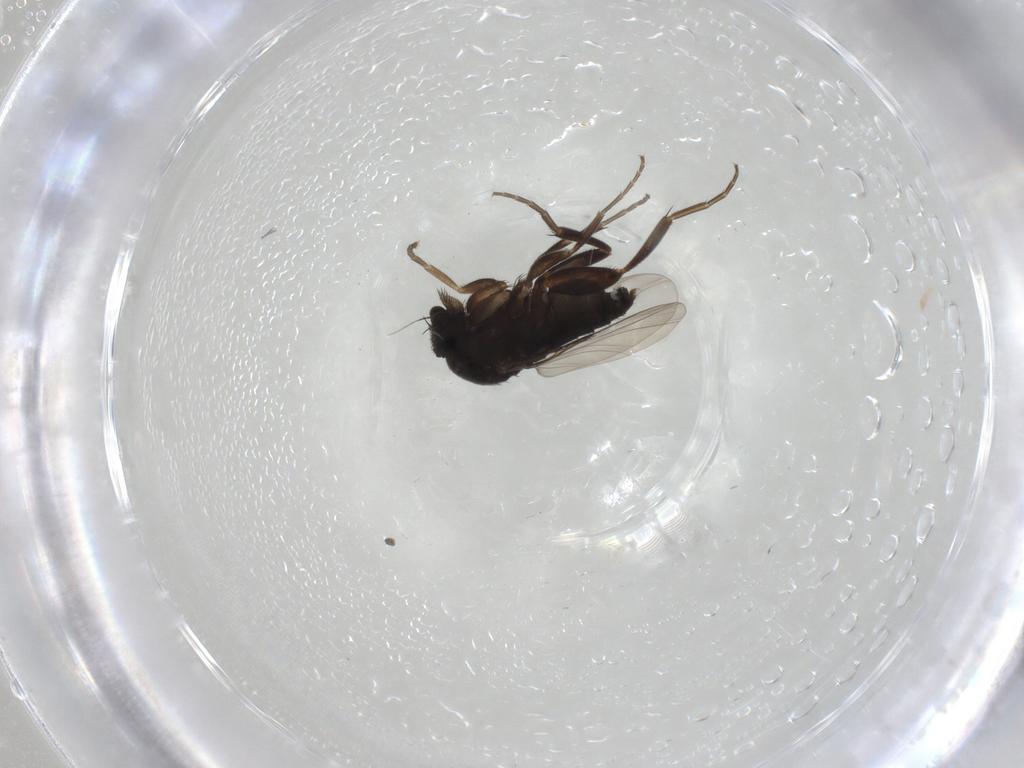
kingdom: Animalia
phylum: Arthropoda
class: Insecta
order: Diptera
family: Phoridae
